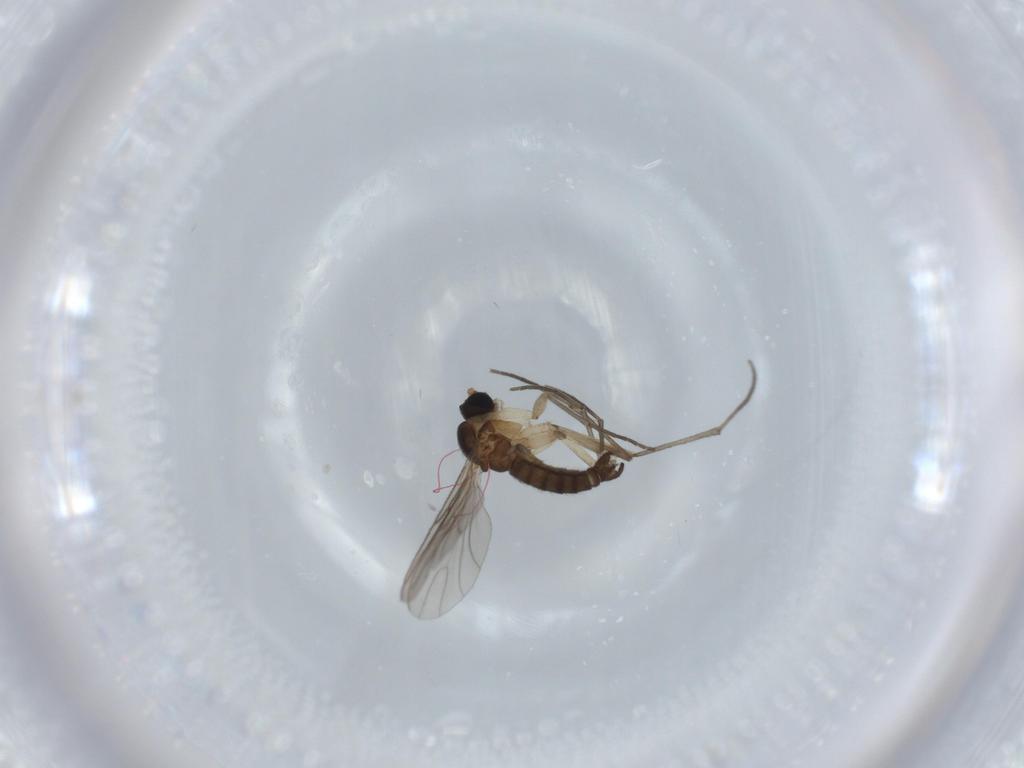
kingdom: Animalia
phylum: Arthropoda
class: Insecta
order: Diptera
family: Sciaridae
